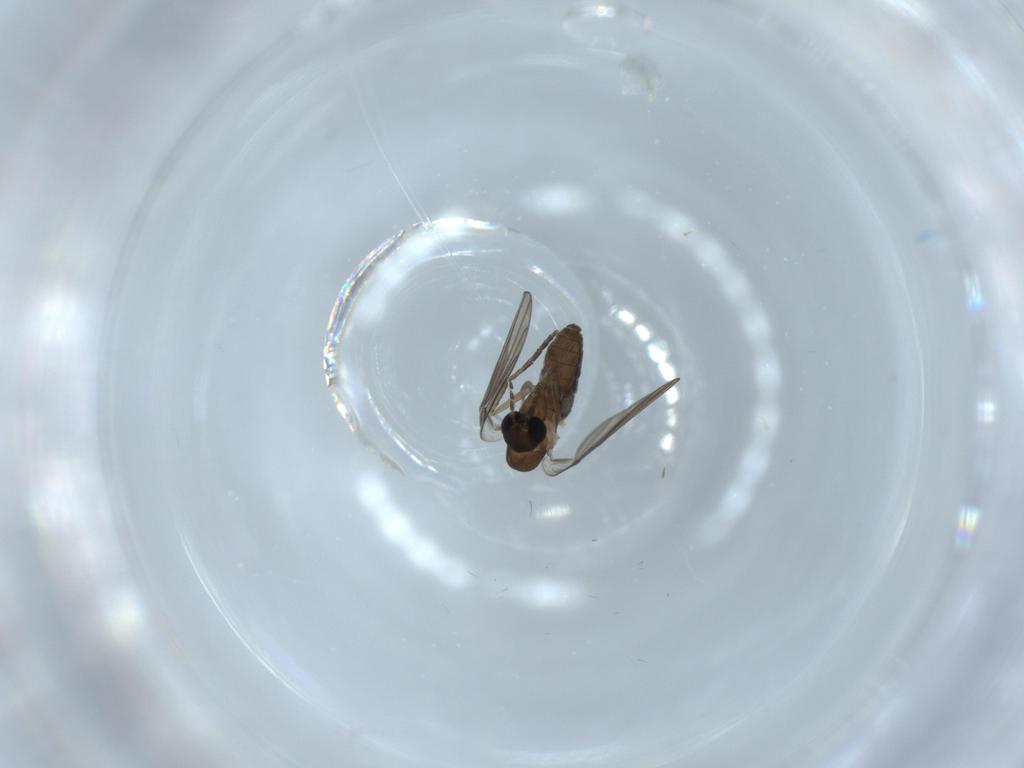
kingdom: Animalia
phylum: Arthropoda
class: Insecta
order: Diptera
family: Psychodidae
